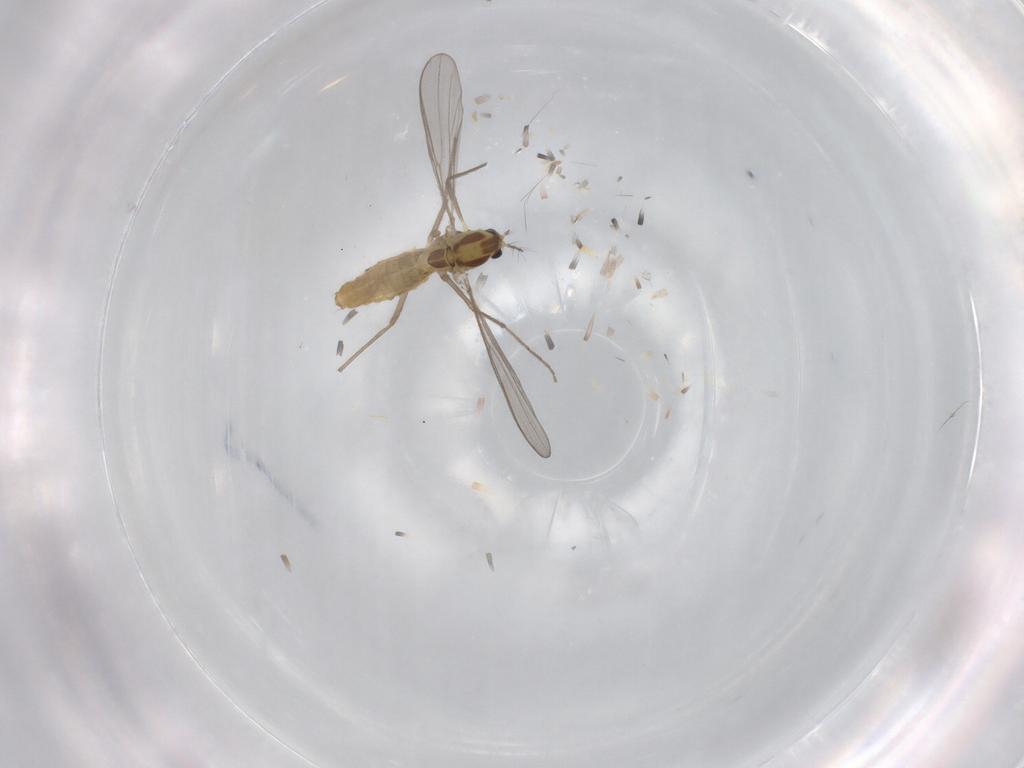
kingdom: Animalia
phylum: Arthropoda
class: Insecta
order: Diptera
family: Chironomidae
